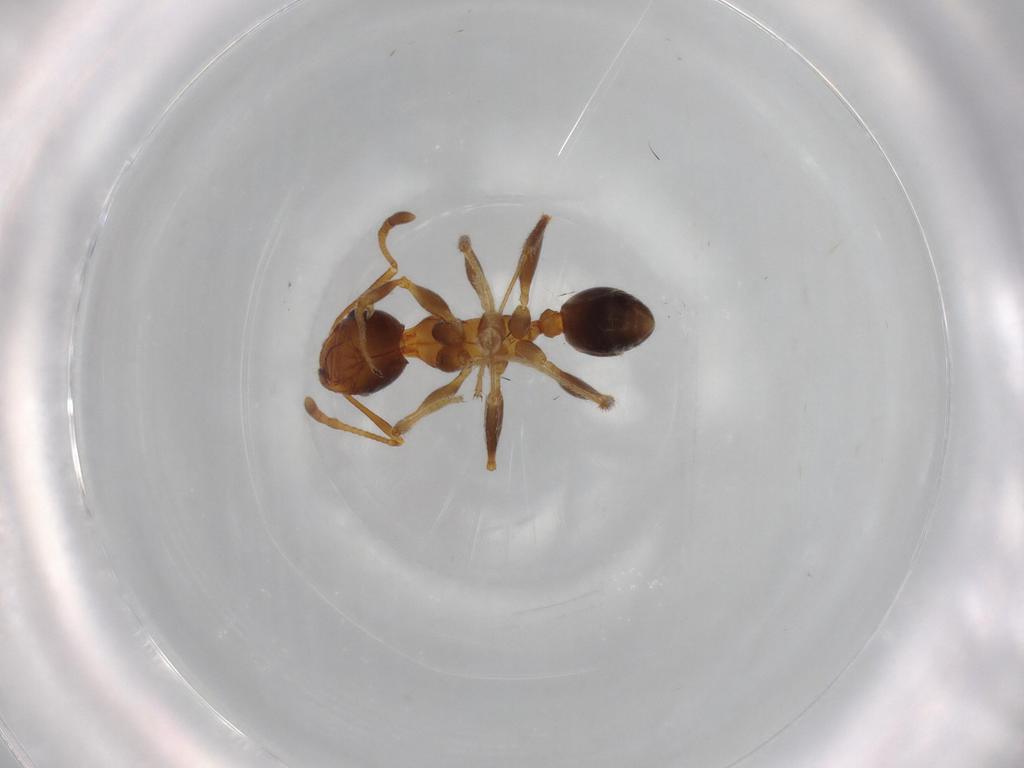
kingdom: Animalia
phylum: Arthropoda
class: Insecta
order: Hymenoptera
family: Formicidae
